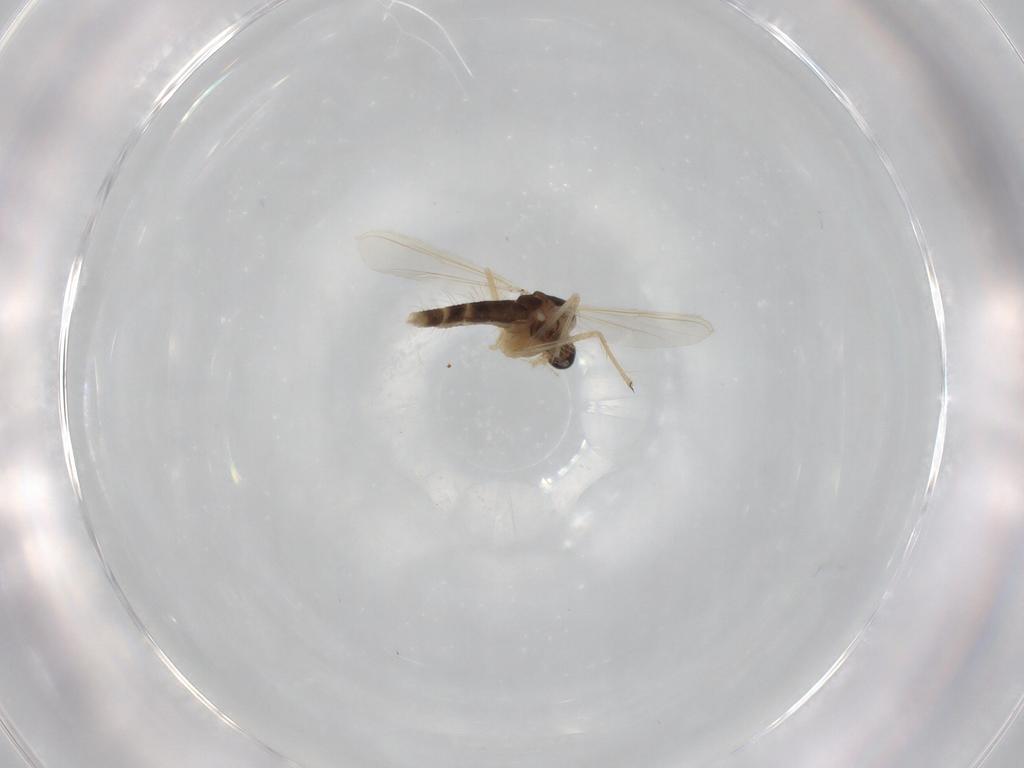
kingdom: Animalia
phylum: Arthropoda
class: Insecta
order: Diptera
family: Chironomidae
